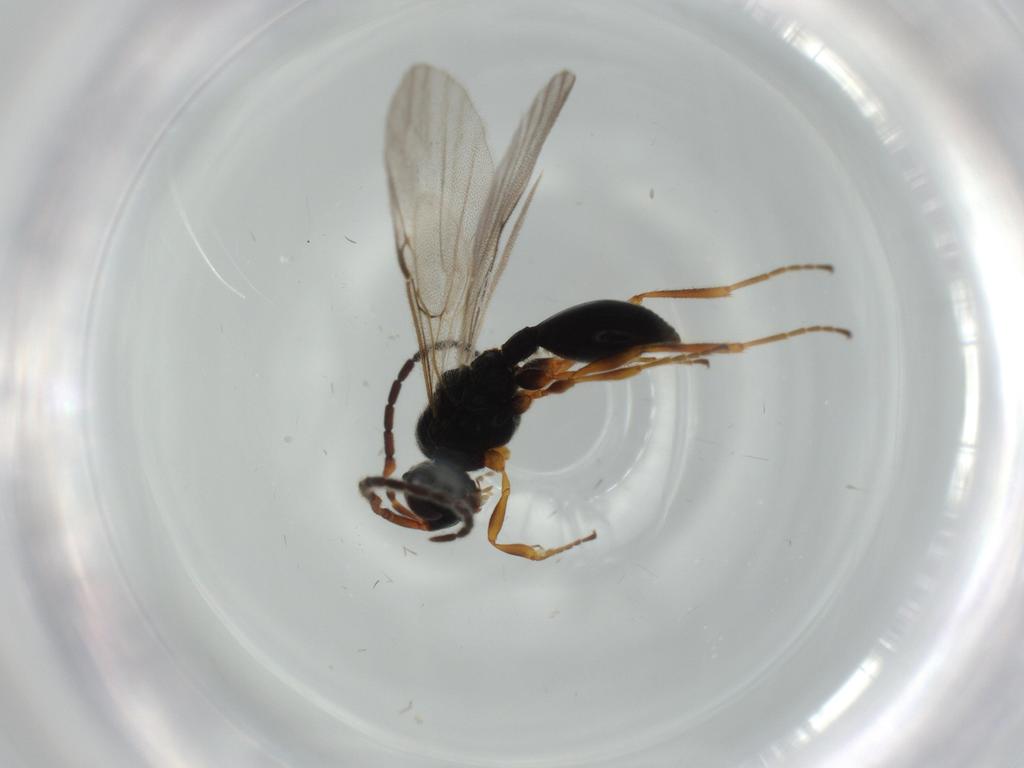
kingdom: Animalia
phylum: Arthropoda
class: Insecta
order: Hymenoptera
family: Vespidae
